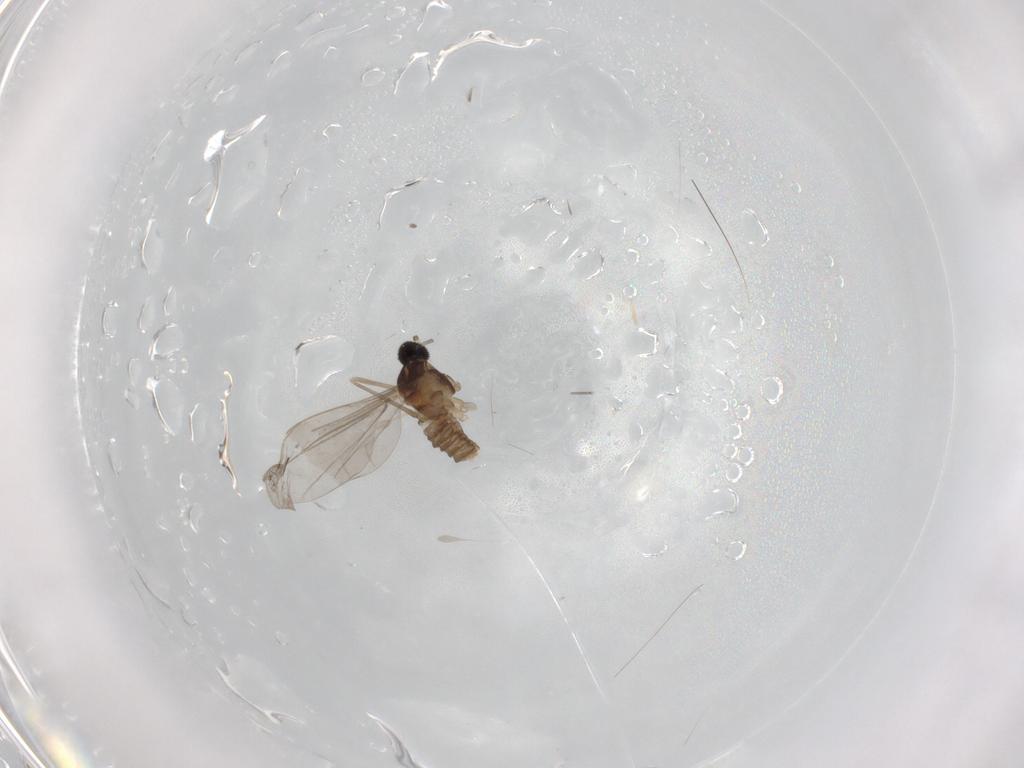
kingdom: Animalia
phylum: Arthropoda
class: Insecta
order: Diptera
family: Cecidomyiidae
